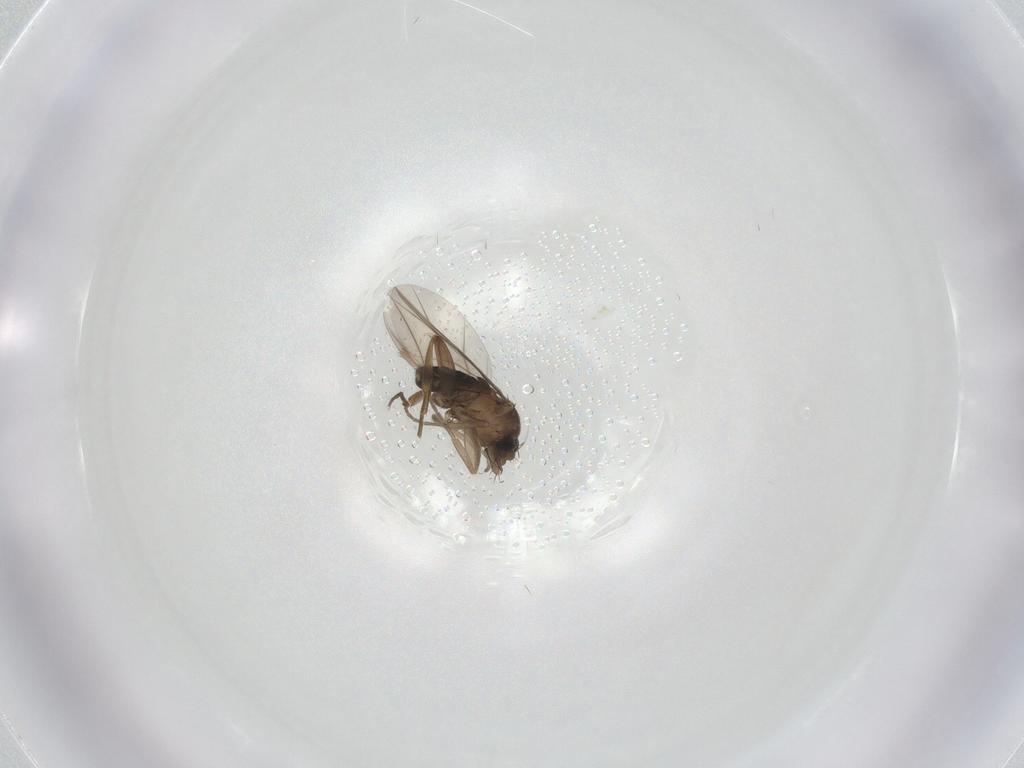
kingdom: Animalia
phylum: Arthropoda
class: Insecta
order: Diptera
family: Phoridae
